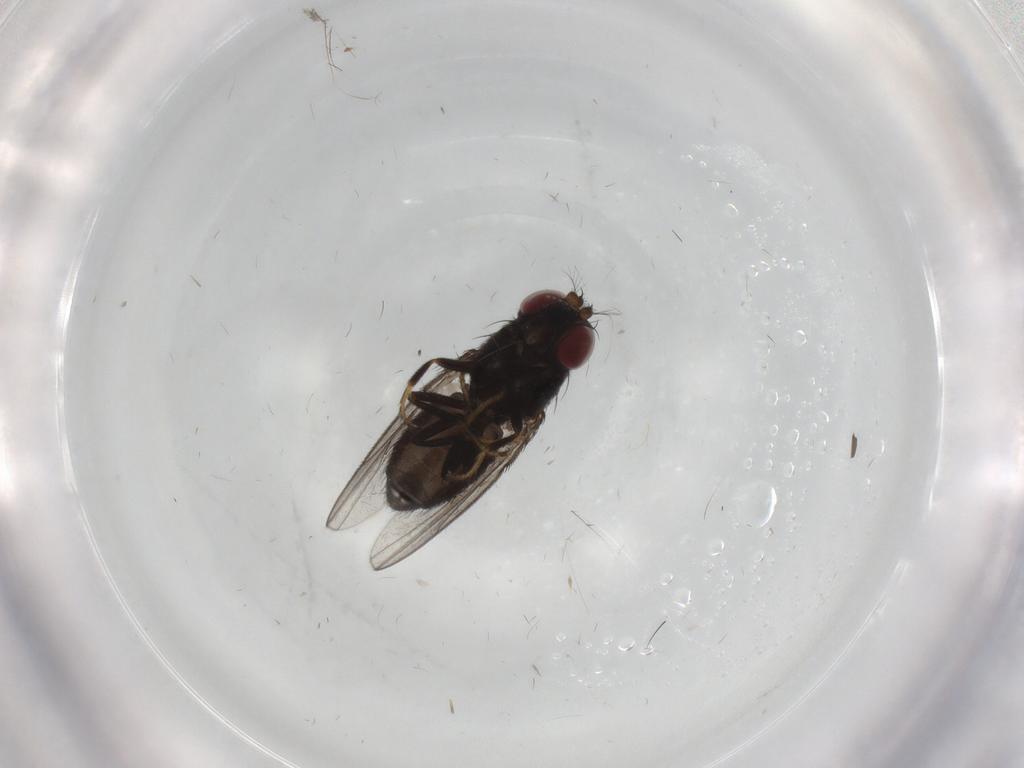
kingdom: Animalia
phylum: Arthropoda
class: Insecta
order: Diptera
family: Phoridae
